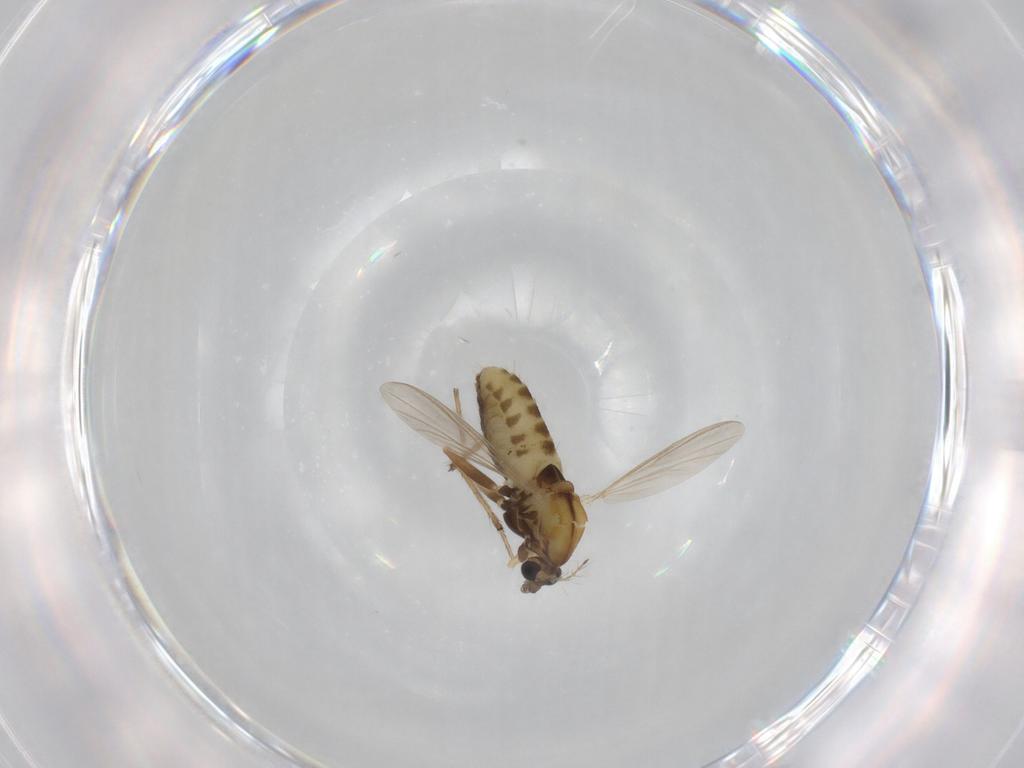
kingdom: Animalia
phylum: Arthropoda
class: Insecta
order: Diptera
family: Chironomidae
